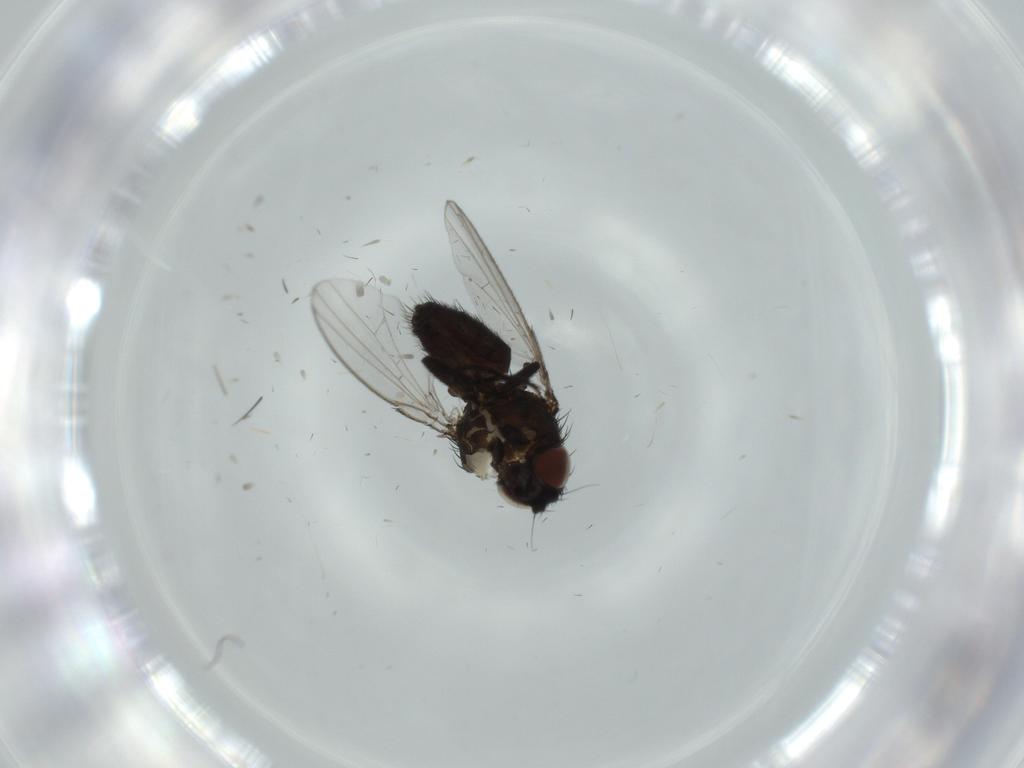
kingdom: Animalia
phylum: Arthropoda
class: Insecta
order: Diptera
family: Milichiidae
